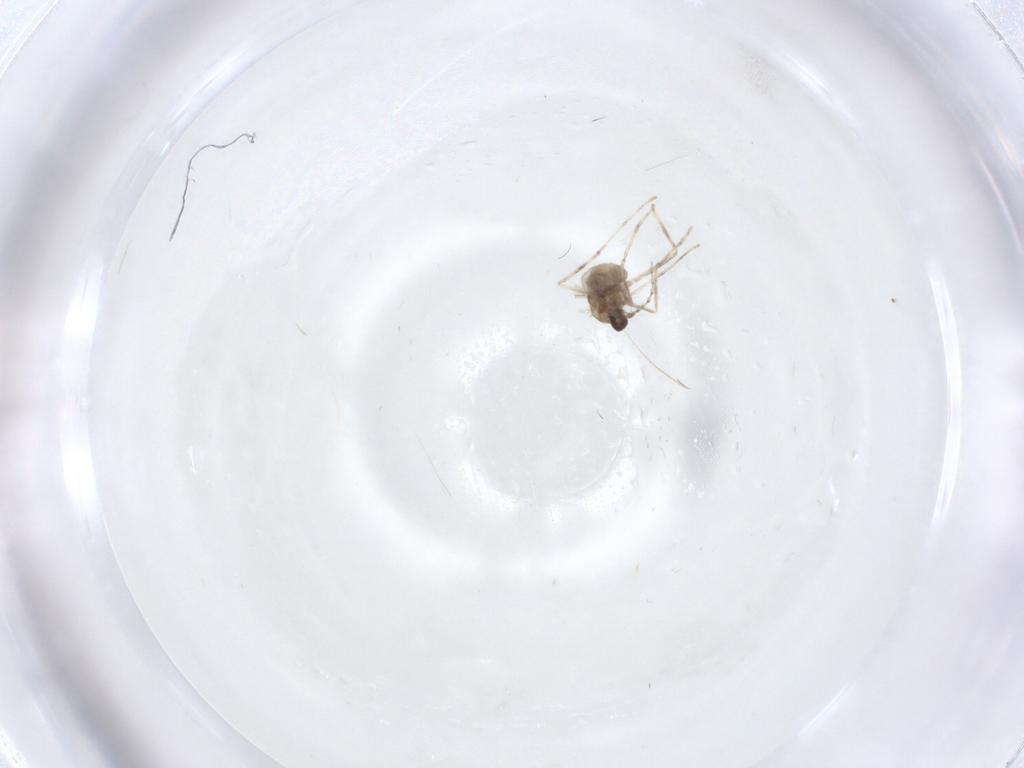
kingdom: Animalia
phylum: Arthropoda
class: Insecta
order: Diptera
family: Cecidomyiidae
